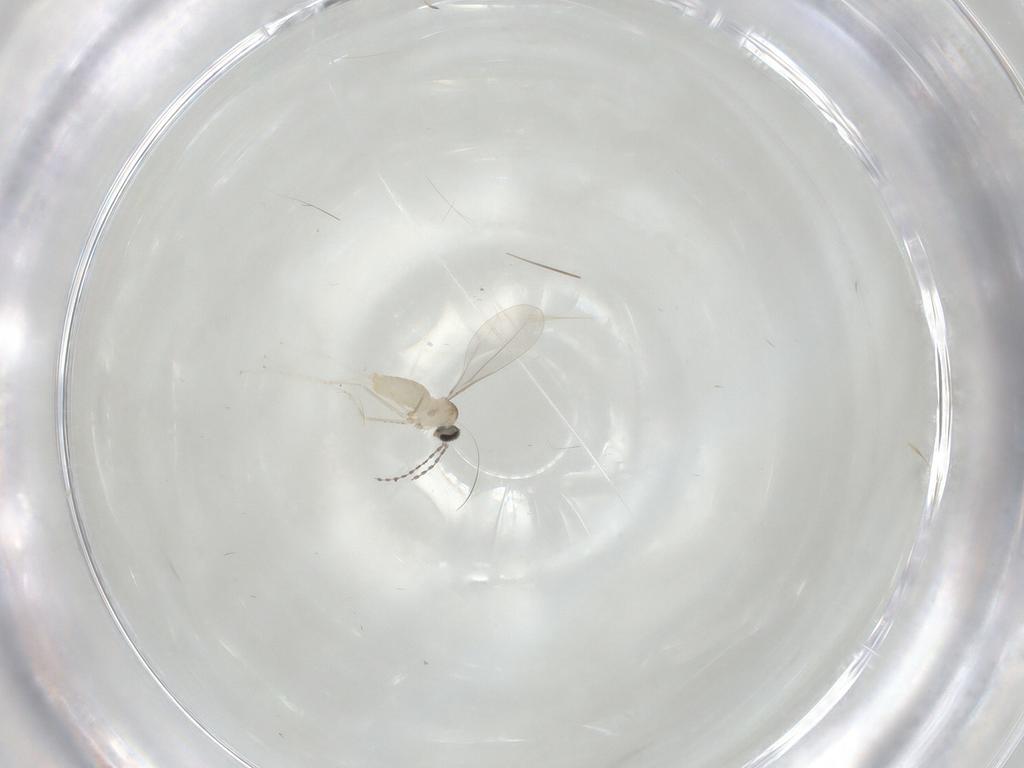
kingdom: Animalia
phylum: Arthropoda
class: Insecta
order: Diptera
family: Cecidomyiidae
